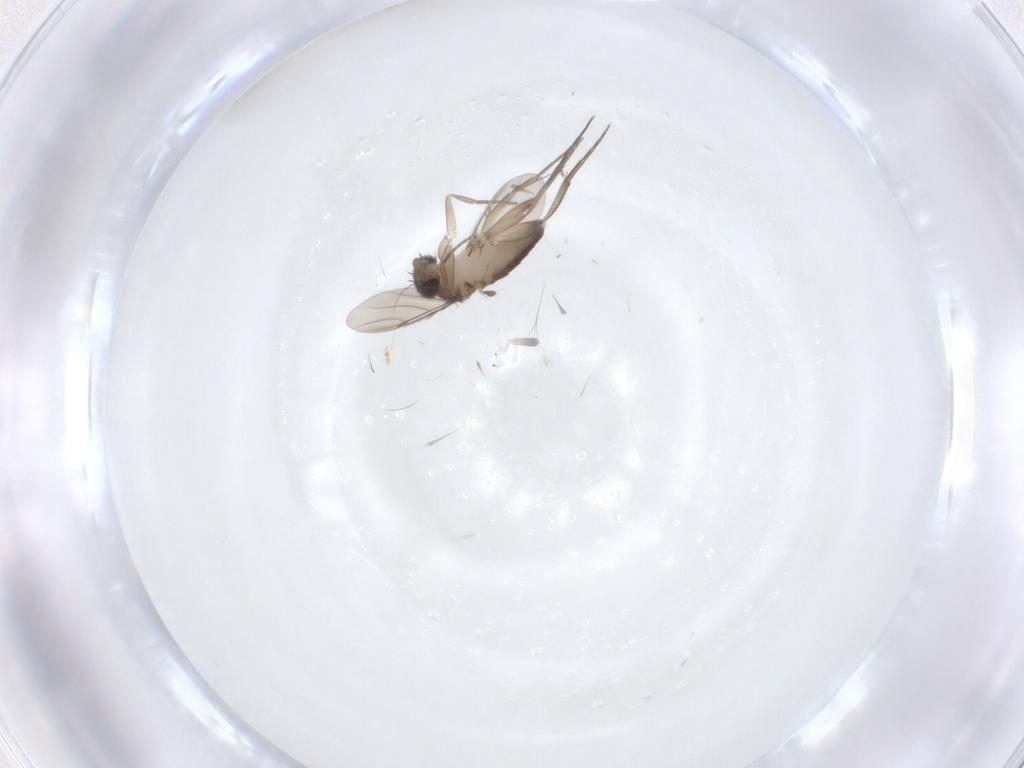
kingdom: Animalia
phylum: Arthropoda
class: Insecta
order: Diptera
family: Phoridae
